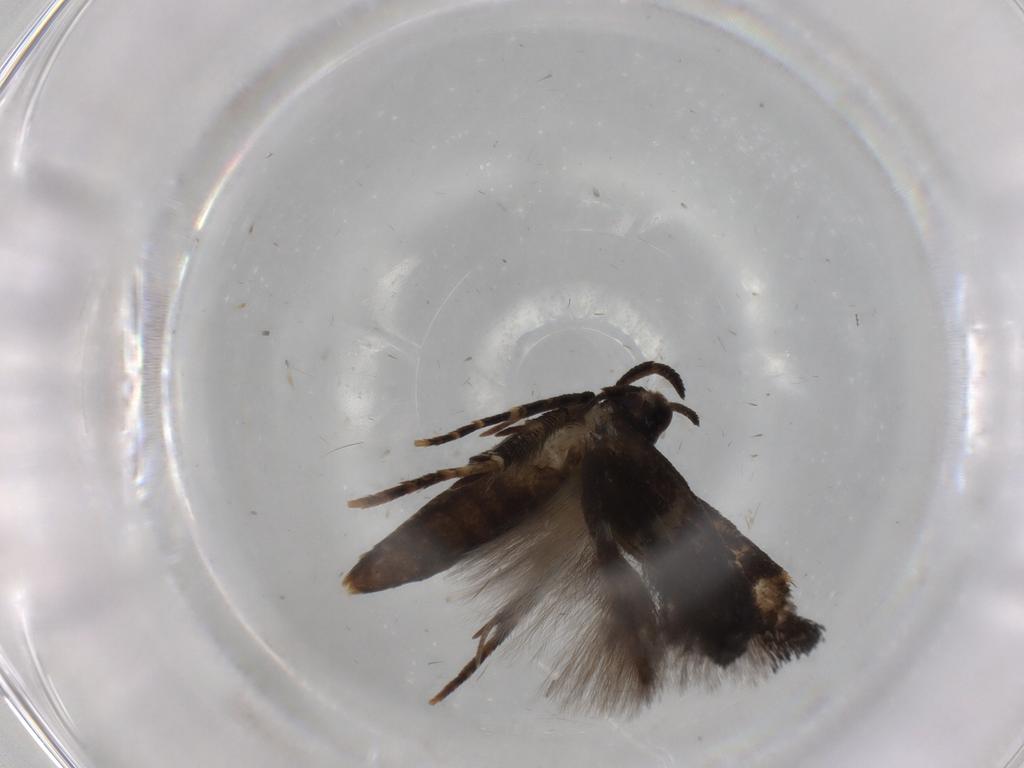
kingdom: Animalia
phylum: Arthropoda
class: Insecta
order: Lepidoptera
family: Cosmopterigidae
